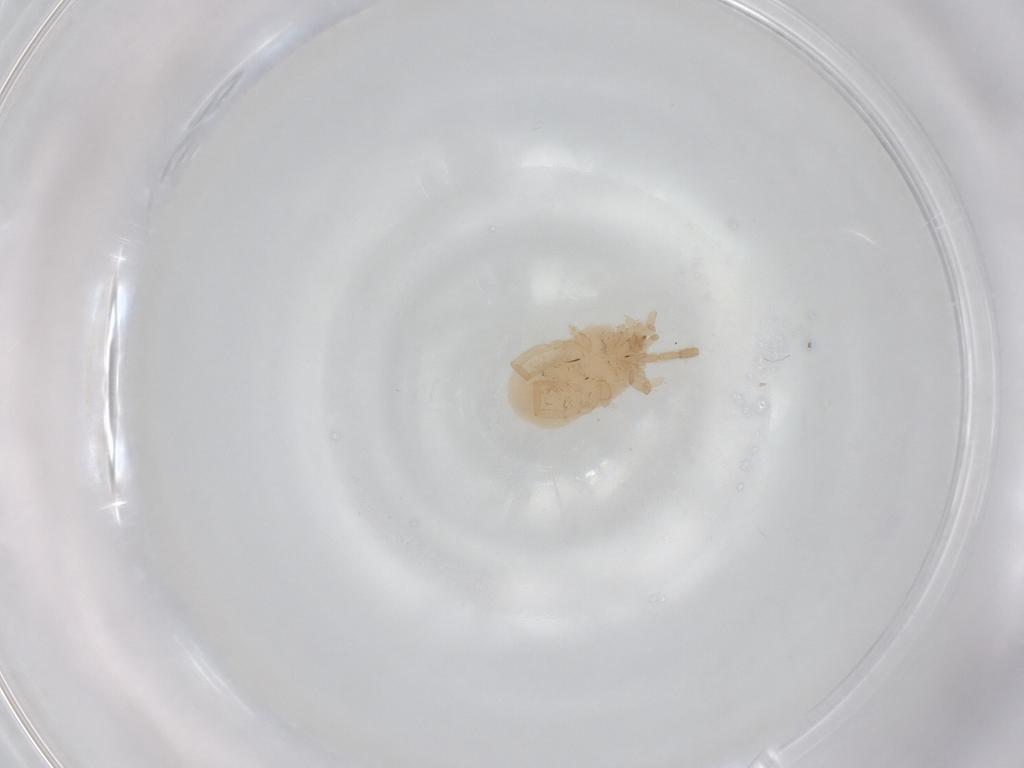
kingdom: Animalia
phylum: Arthropoda
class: Arachnida
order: Trombidiformes
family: Erythraeidae
